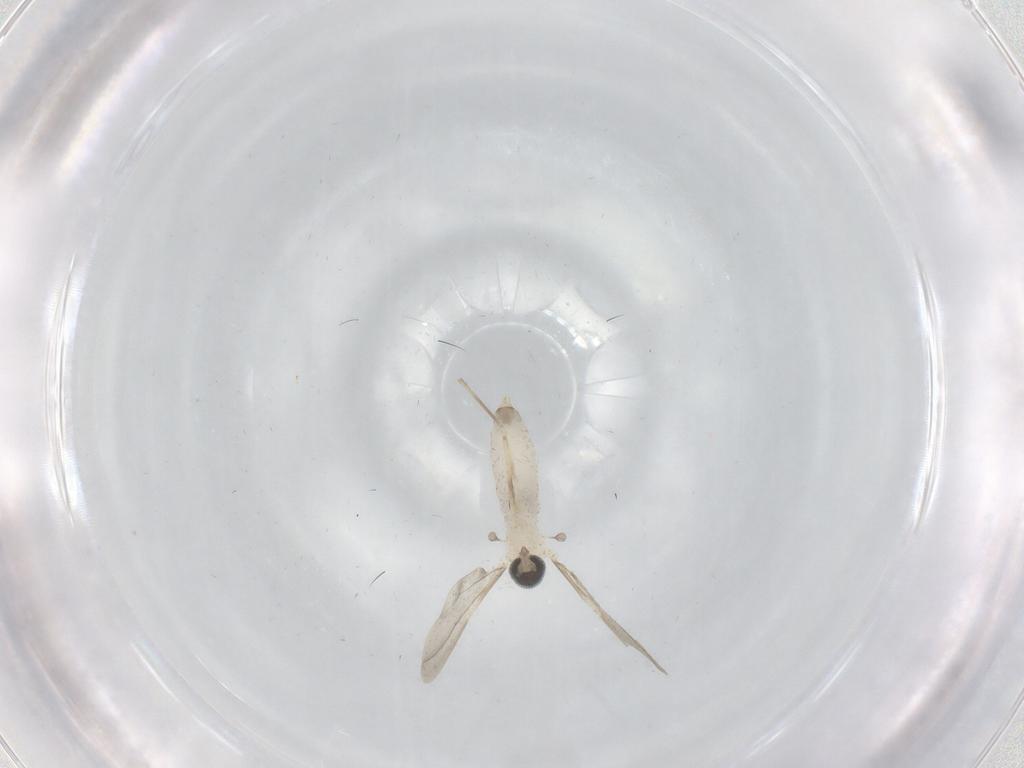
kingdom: Animalia
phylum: Arthropoda
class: Insecta
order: Diptera
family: Cecidomyiidae
